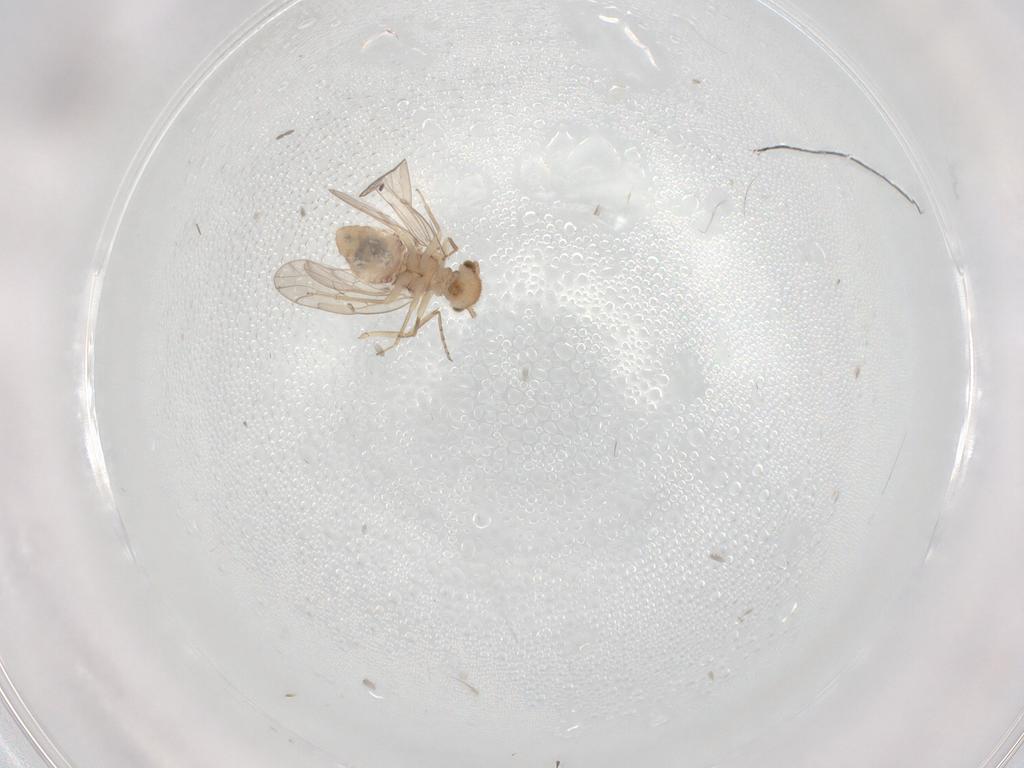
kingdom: Animalia
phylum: Arthropoda
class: Insecta
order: Psocodea
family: Ectopsocidae
